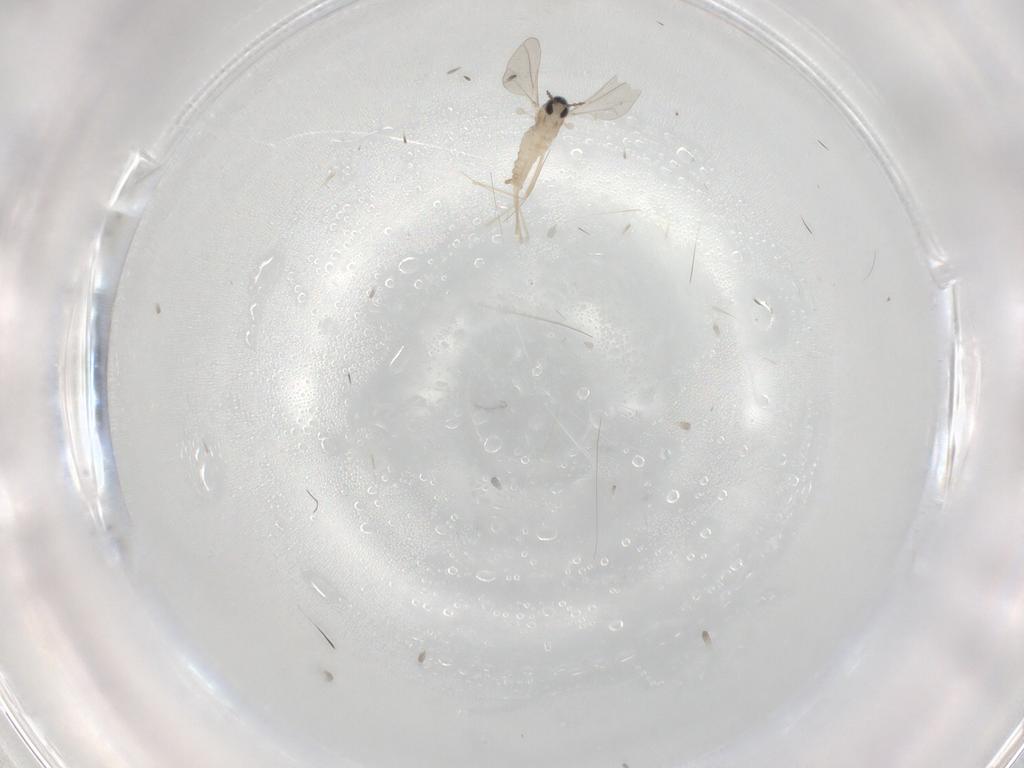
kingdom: Animalia
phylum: Arthropoda
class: Insecta
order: Diptera
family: Cecidomyiidae
